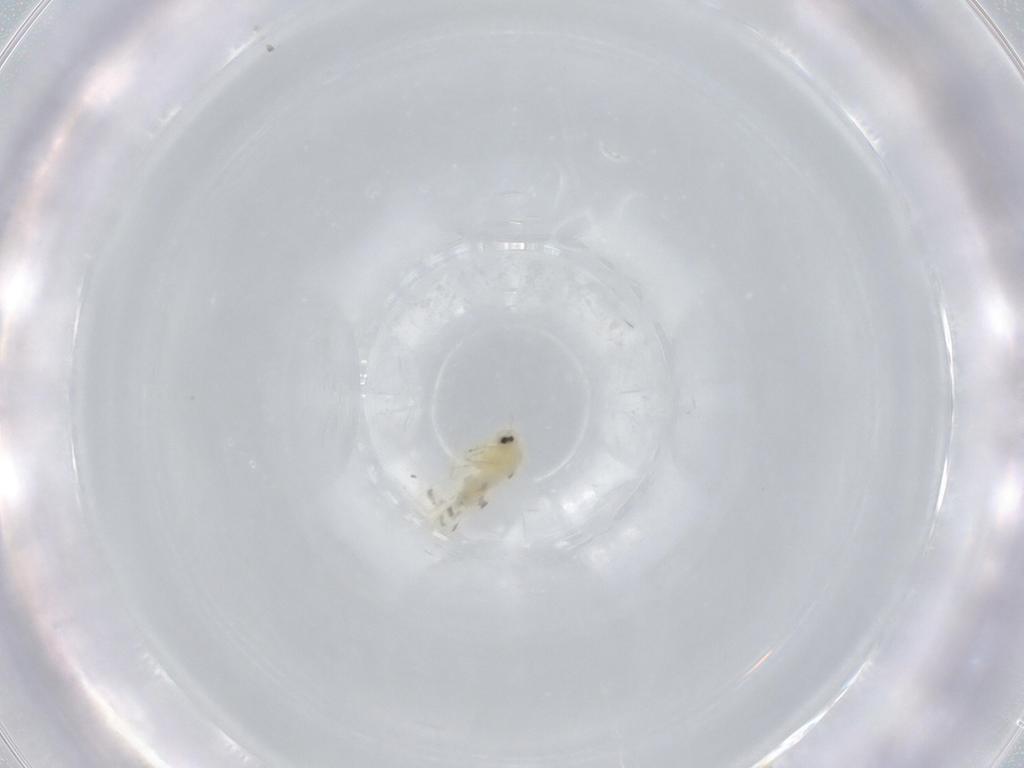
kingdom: Animalia
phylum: Arthropoda
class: Insecta
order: Hemiptera
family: Aleyrodidae
